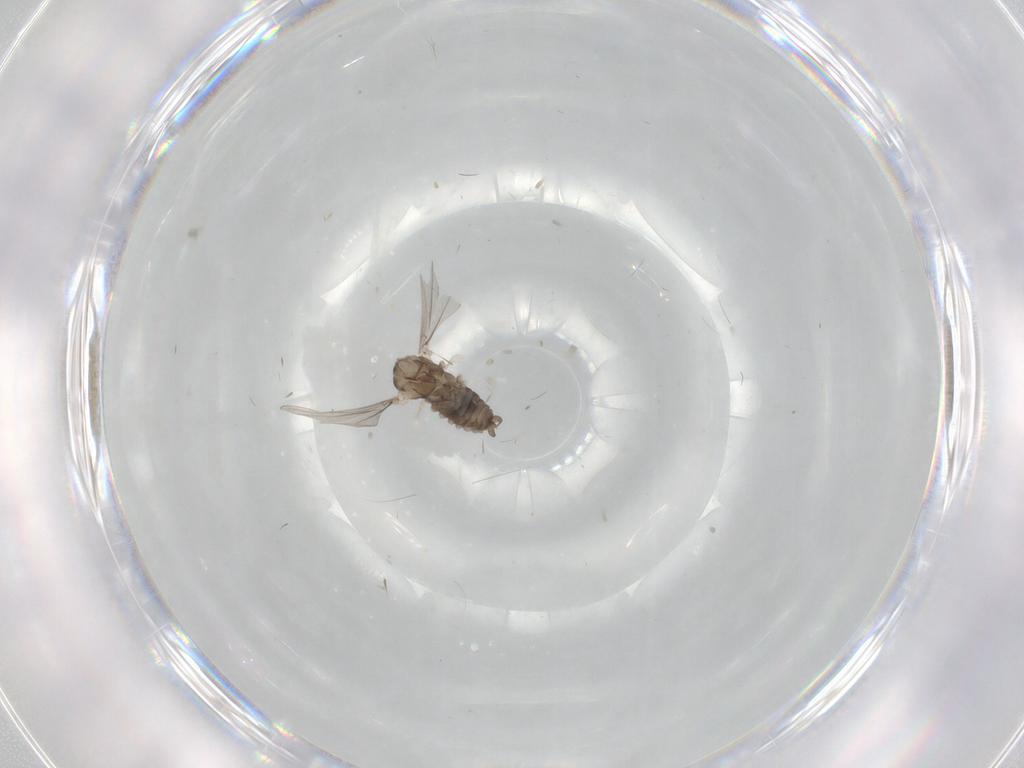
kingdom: Animalia
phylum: Arthropoda
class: Insecta
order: Diptera
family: Cecidomyiidae
